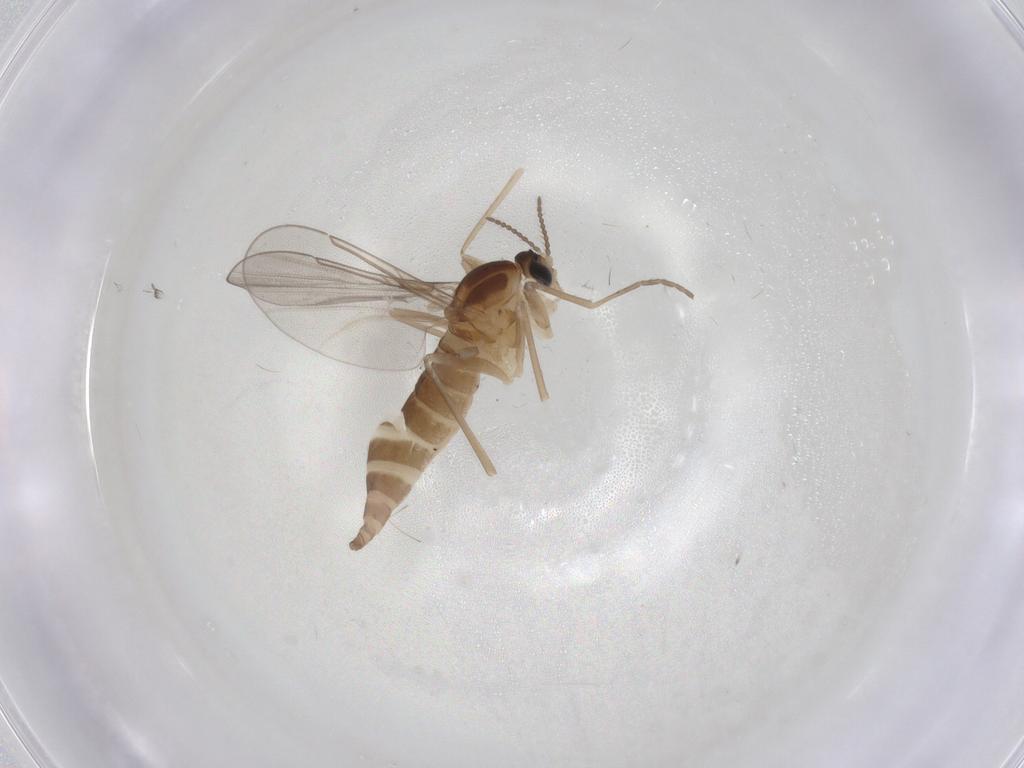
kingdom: Animalia
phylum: Arthropoda
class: Insecta
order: Diptera
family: Cecidomyiidae
